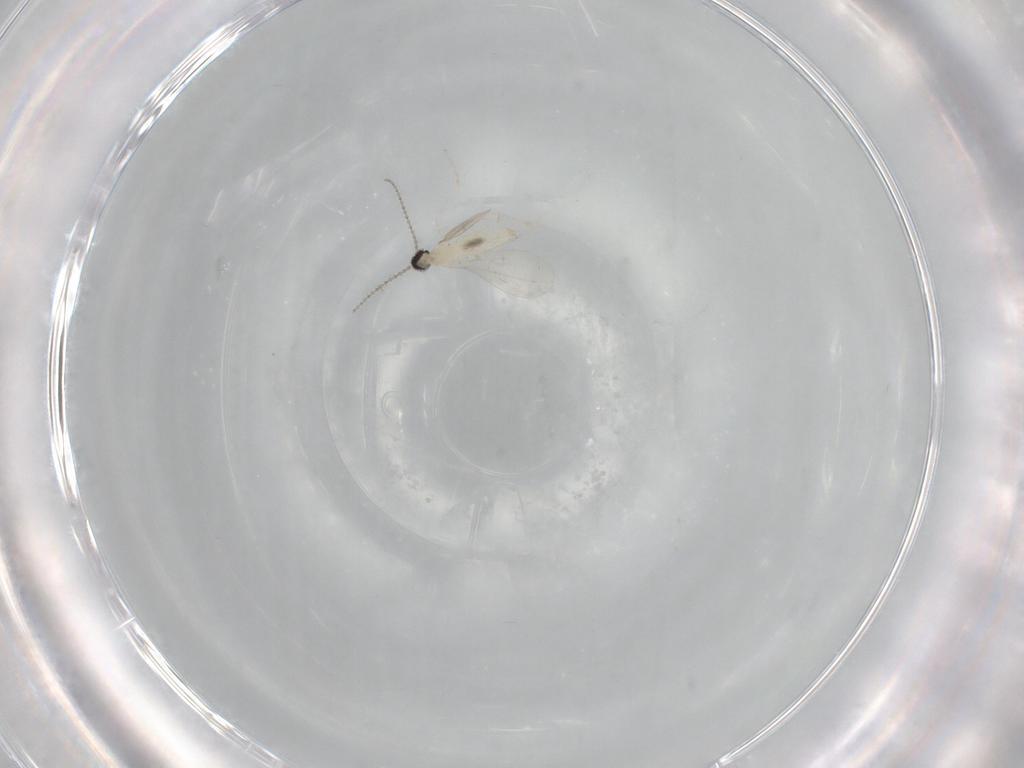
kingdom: Animalia
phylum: Arthropoda
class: Insecta
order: Diptera
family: Cecidomyiidae
